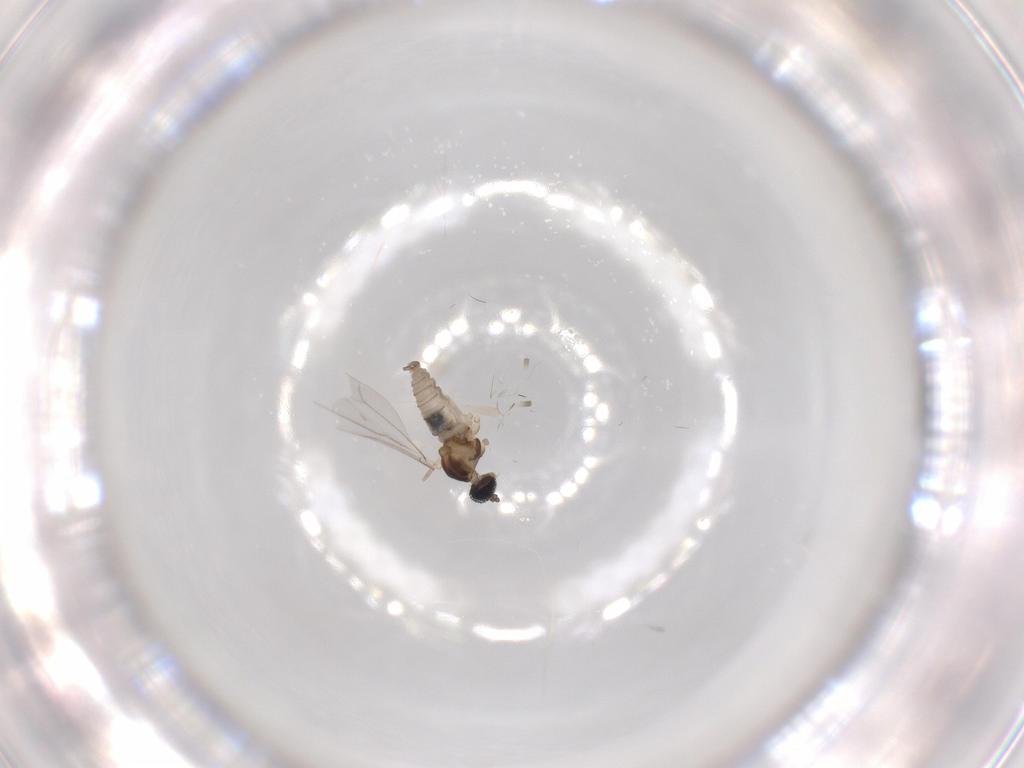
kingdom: Animalia
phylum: Arthropoda
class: Insecta
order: Diptera
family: Cecidomyiidae
